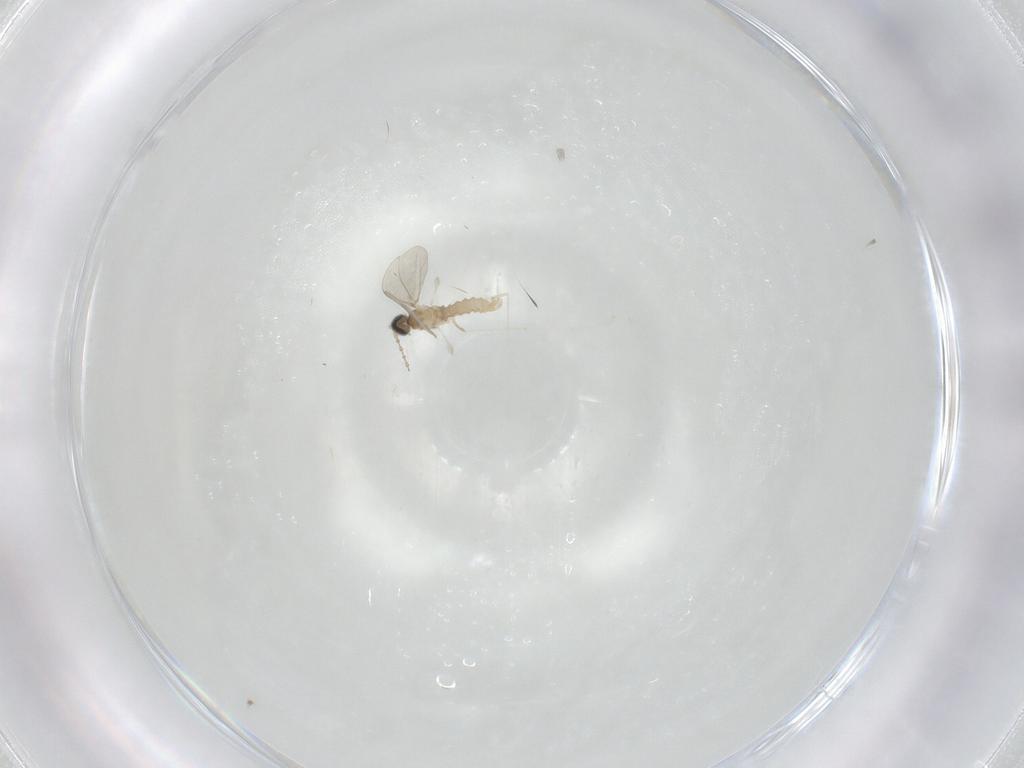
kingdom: Animalia
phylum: Arthropoda
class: Insecta
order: Diptera
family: Cecidomyiidae
